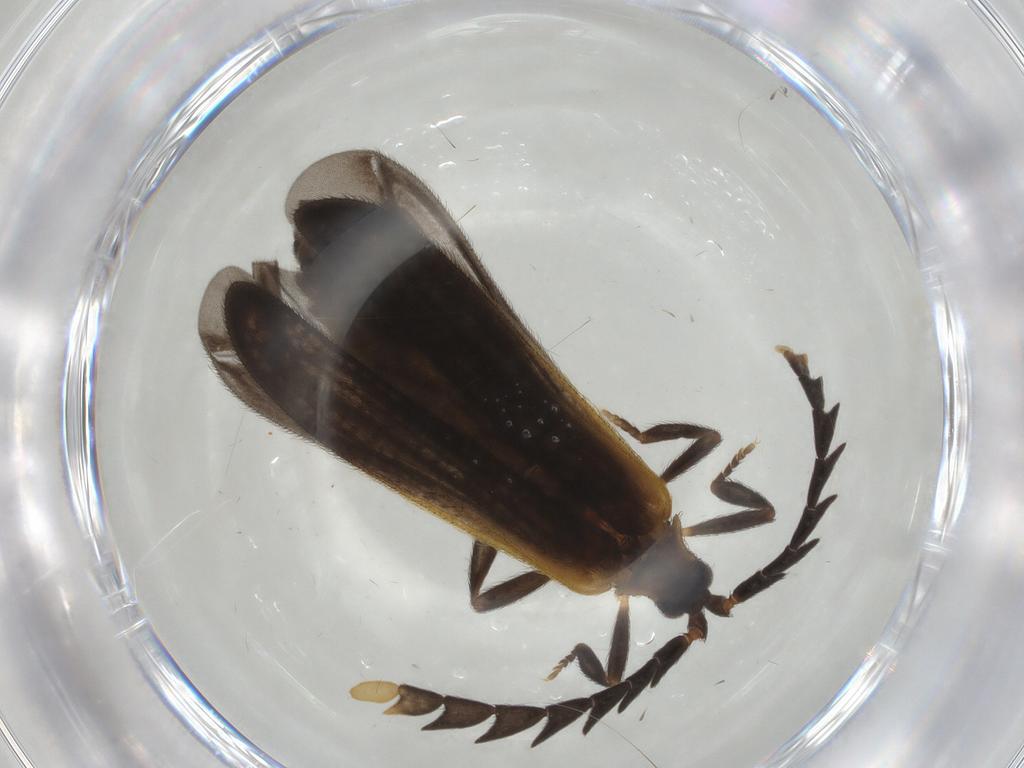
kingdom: Animalia
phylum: Arthropoda
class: Insecta
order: Coleoptera
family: Lycidae
